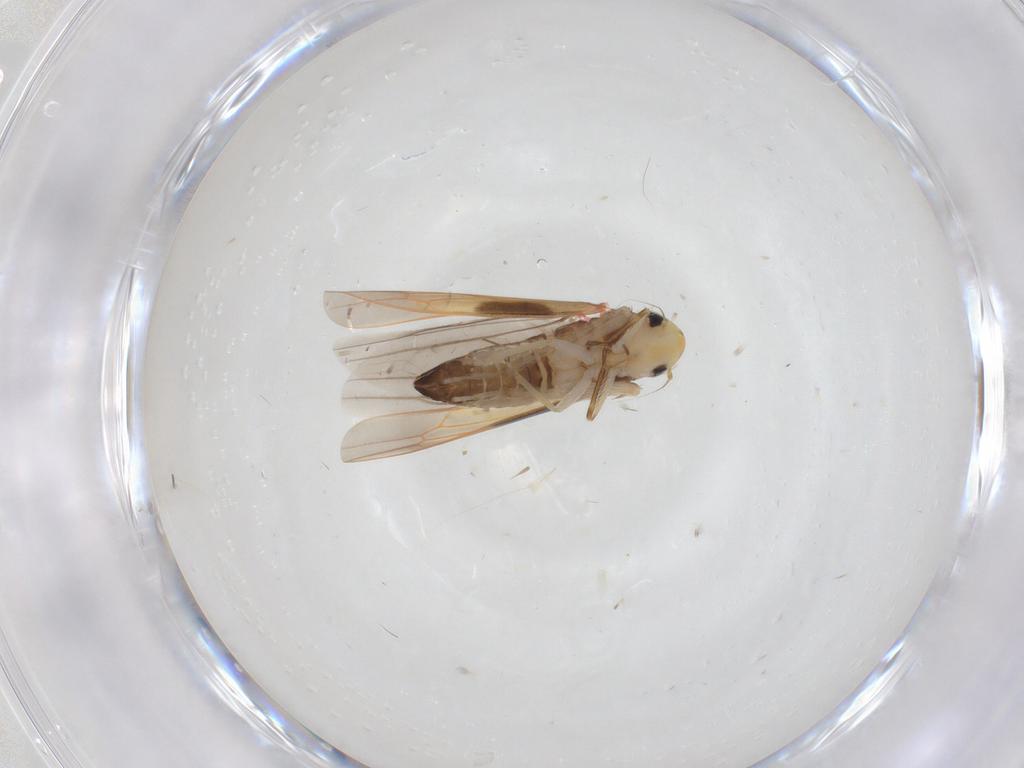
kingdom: Animalia
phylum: Arthropoda
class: Insecta
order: Hemiptera
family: Cicadellidae
